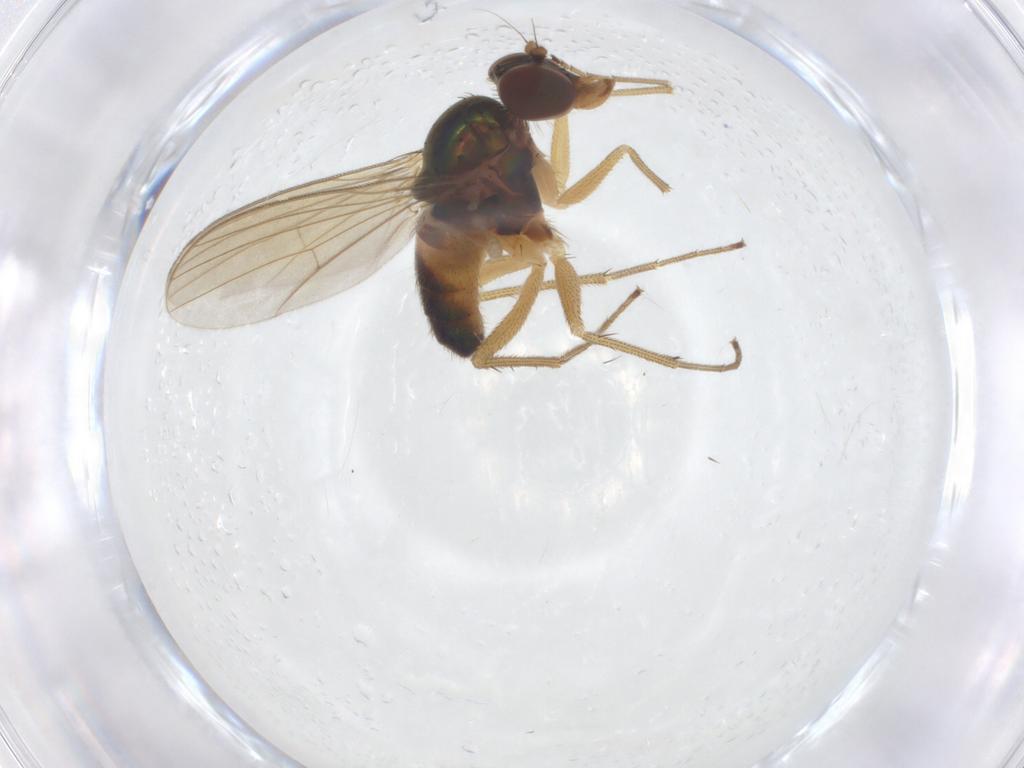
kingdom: Animalia
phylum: Arthropoda
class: Insecta
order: Diptera
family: Dolichopodidae
